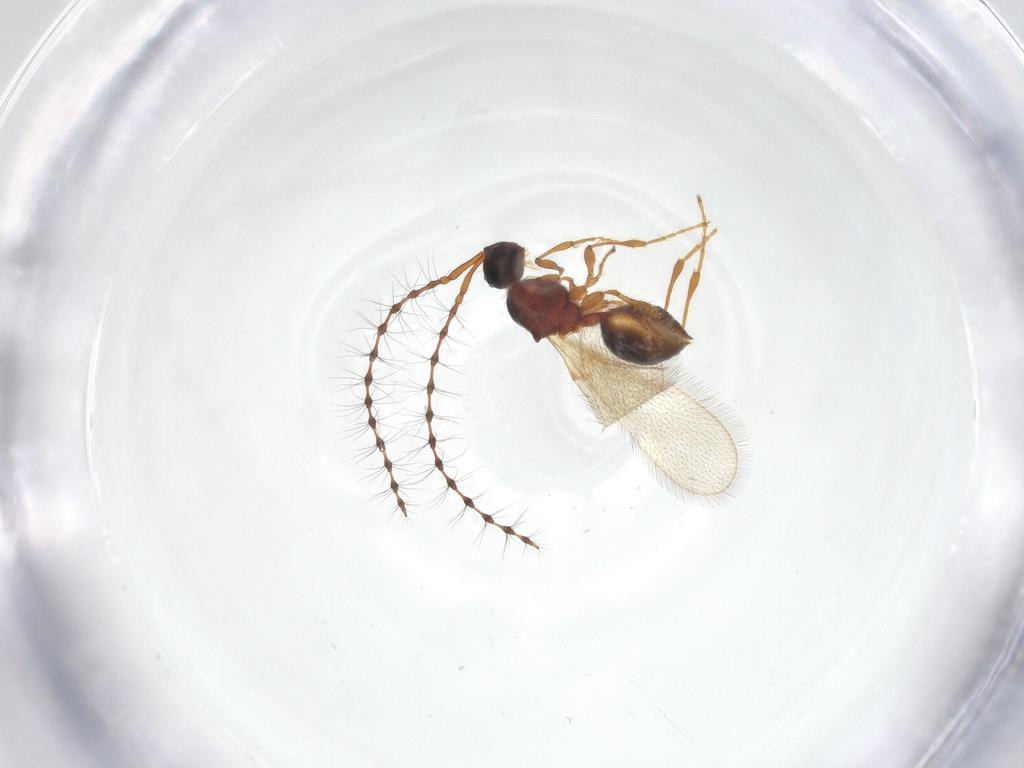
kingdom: Animalia
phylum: Arthropoda
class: Insecta
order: Hymenoptera
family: Diapriidae
